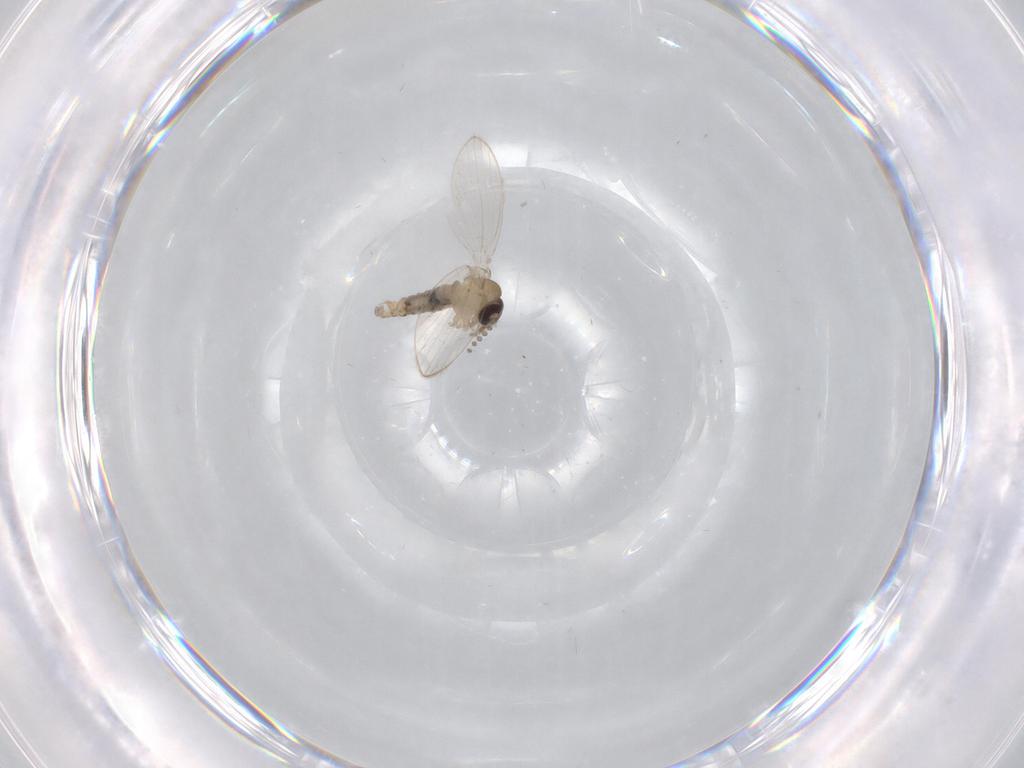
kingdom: Animalia
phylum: Arthropoda
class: Insecta
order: Diptera
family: Psychodidae
